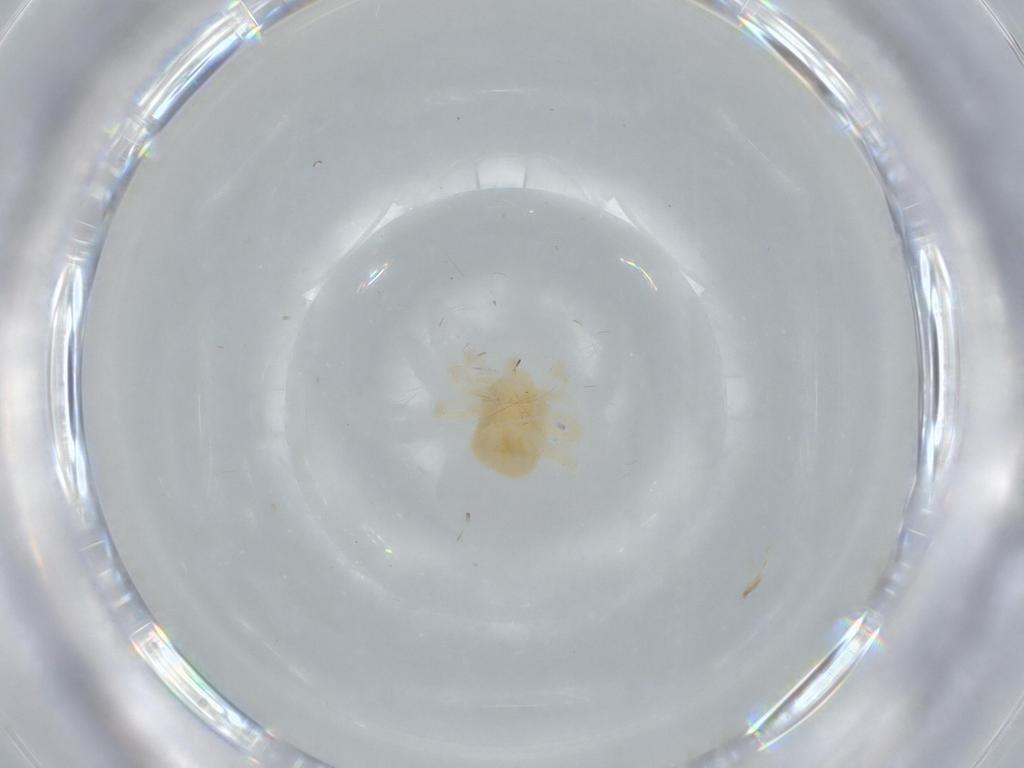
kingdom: Animalia
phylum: Arthropoda
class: Arachnida
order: Trombidiformes
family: Anystidae
